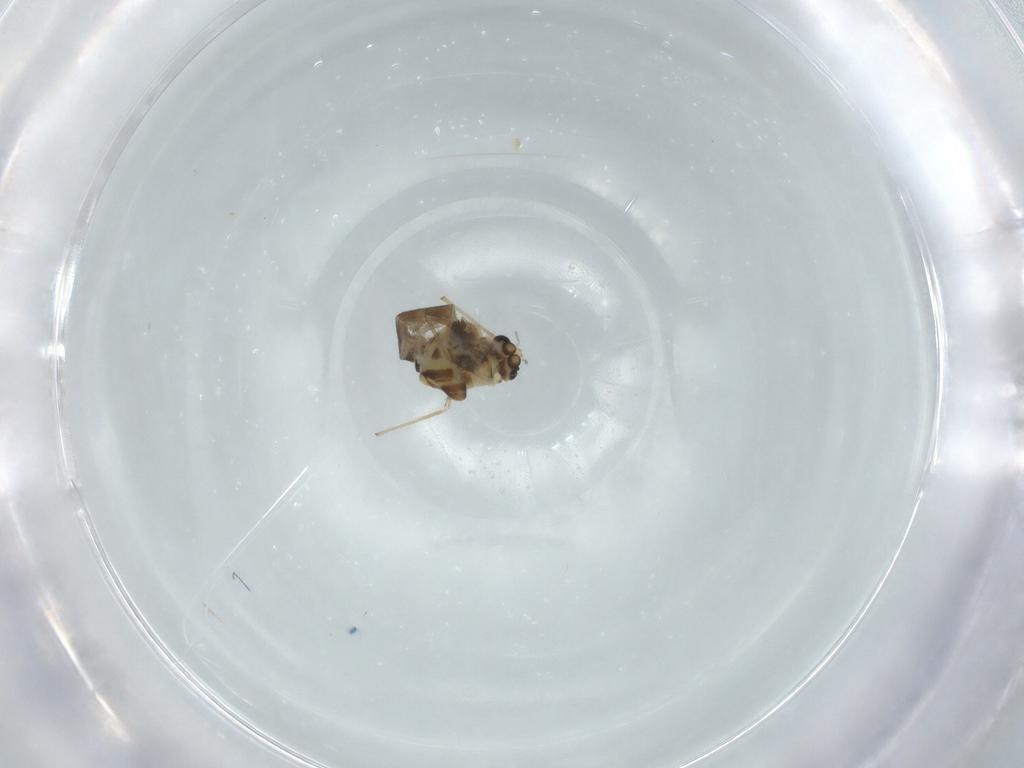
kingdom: Animalia
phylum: Arthropoda
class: Insecta
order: Diptera
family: Chironomidae
